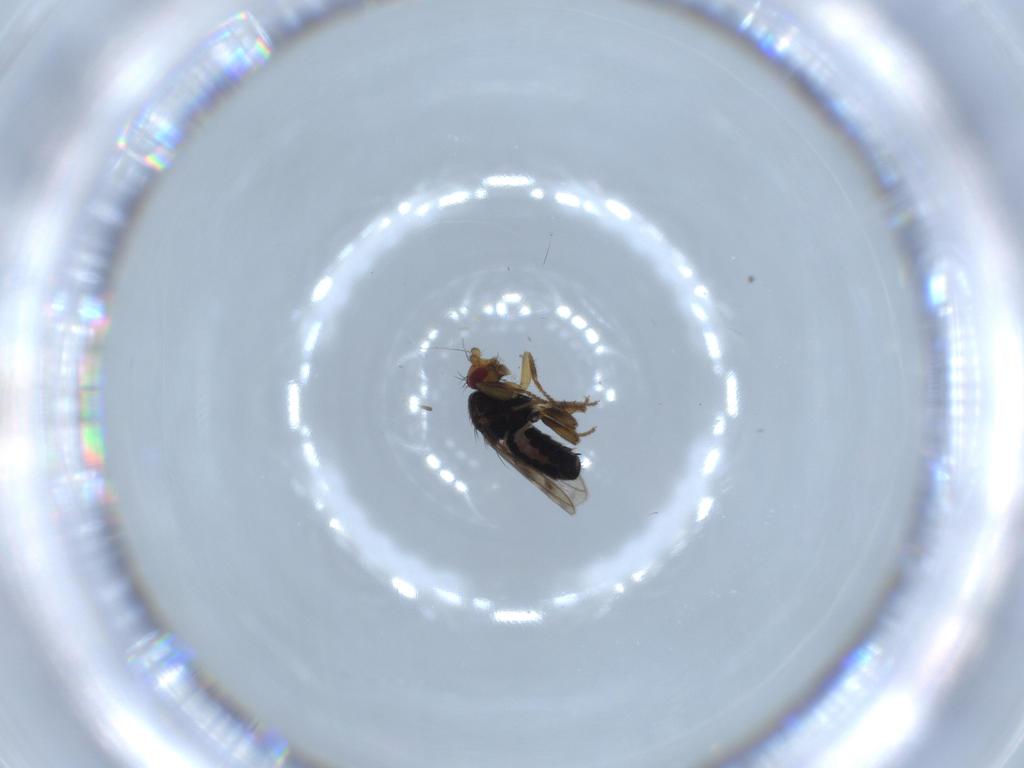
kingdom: Animalia
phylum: Arthropoda
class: Insecta
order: Diptera
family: Sphaeroceridae
